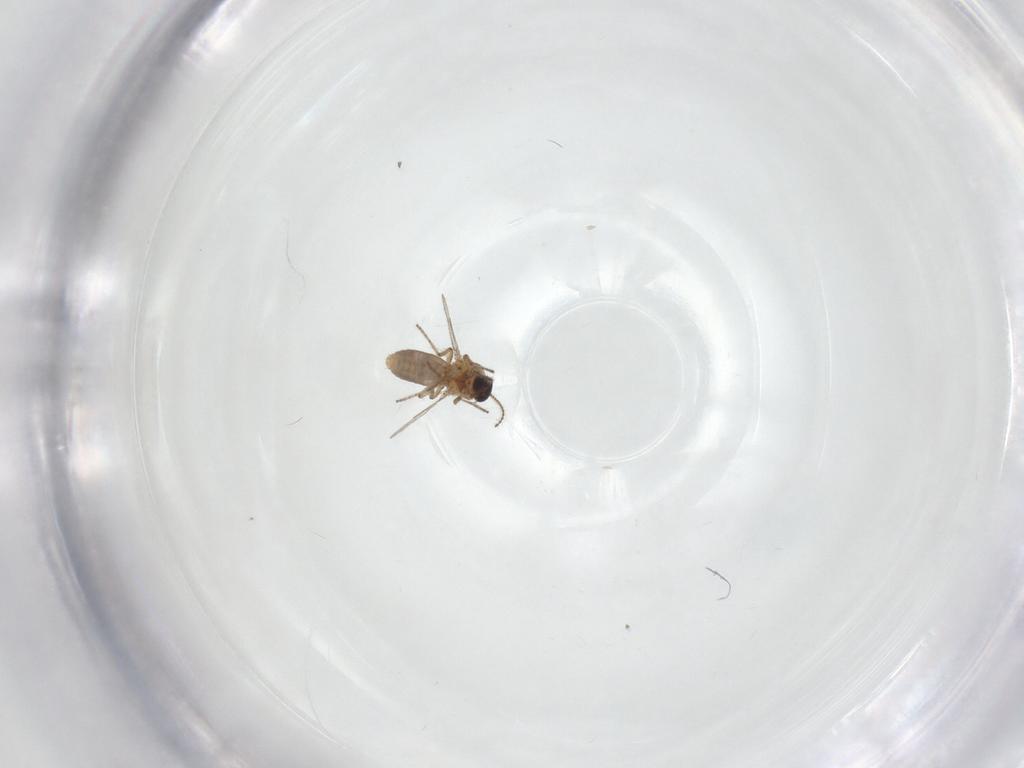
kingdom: Animalia
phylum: Arthropoda
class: Insecta
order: Diptera
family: Ceratopogonidae
